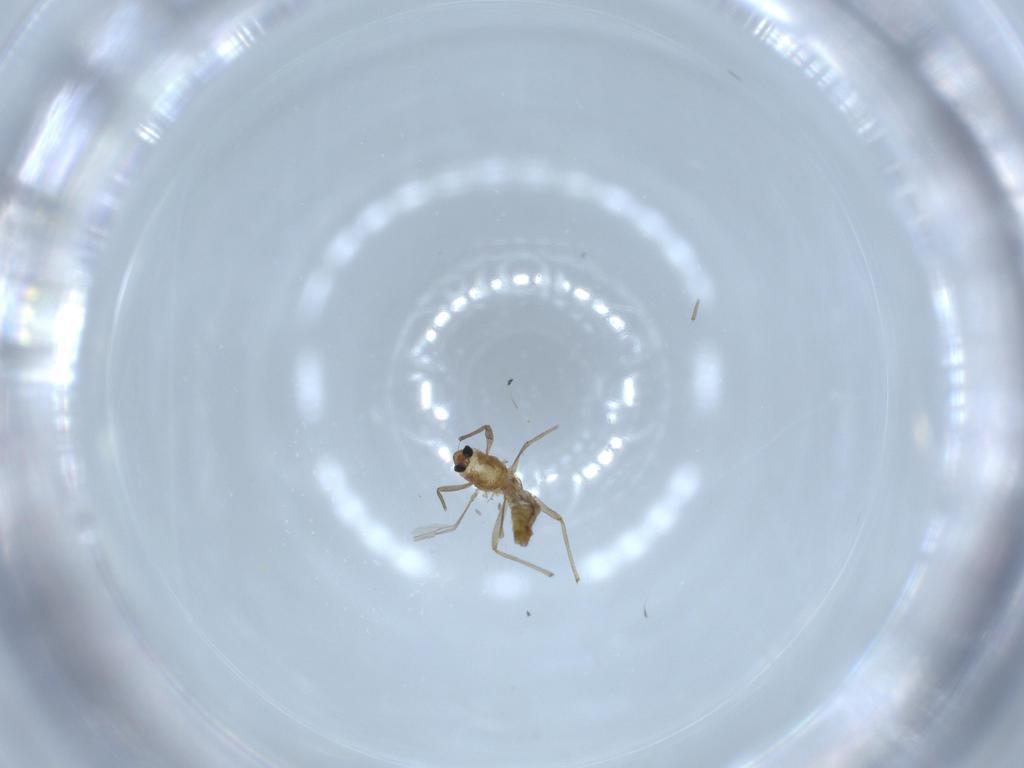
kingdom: Animalia
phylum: Arthropoda
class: Insecta
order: Diptera
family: Chironomidae
